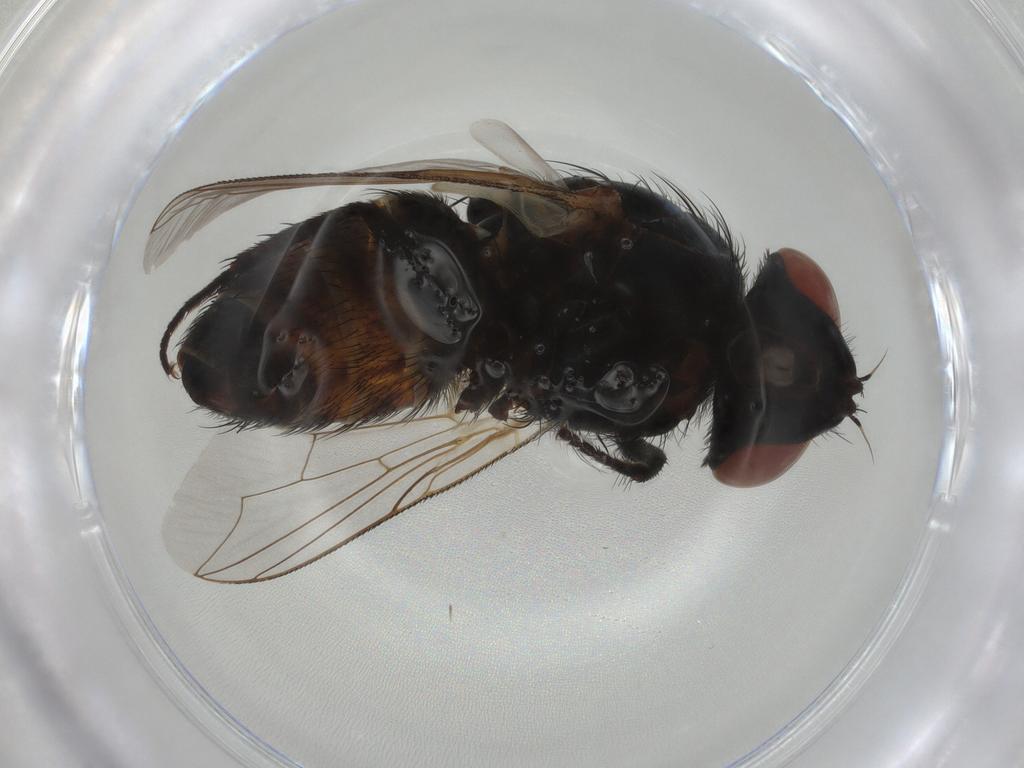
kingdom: Animalia
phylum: Arthropoda
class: Insecta
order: Diptera
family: Sarcophagidae
